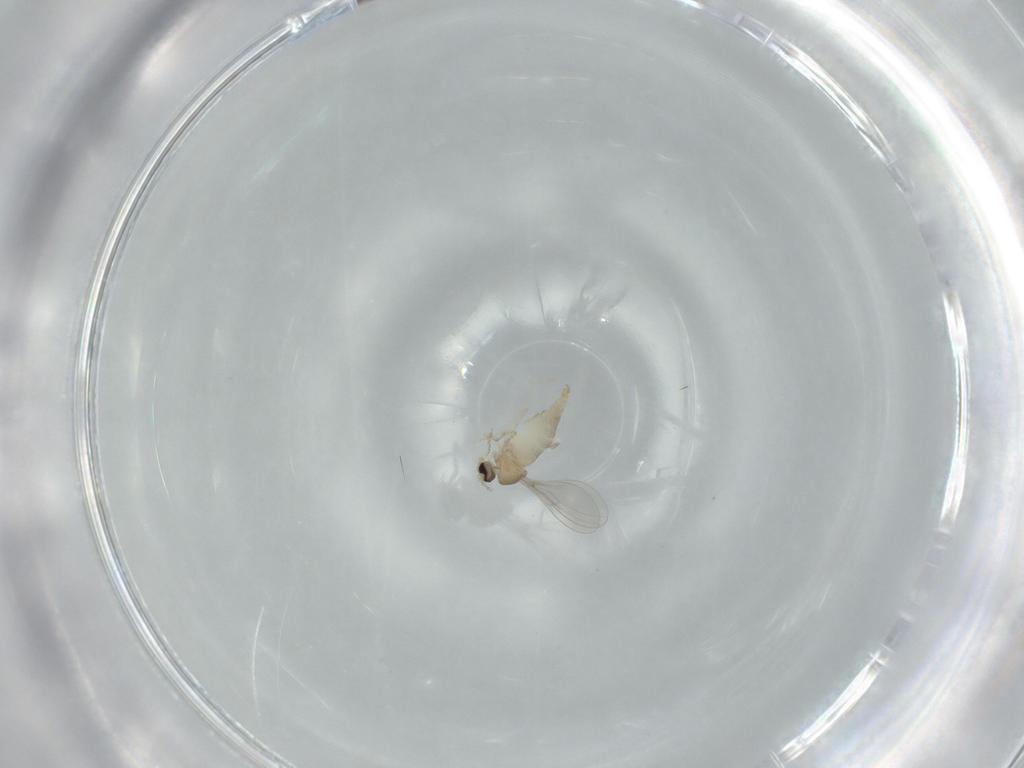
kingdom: Animalia
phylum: Arthropoda
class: Insecta
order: Diptera
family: Cecidomyiidae
